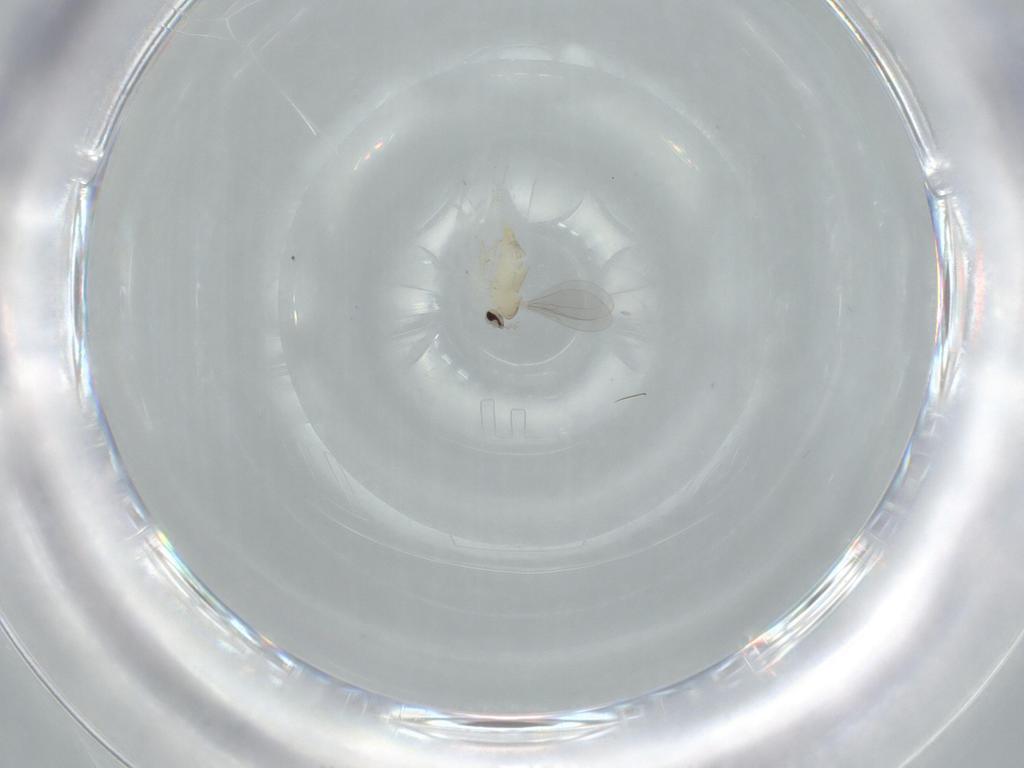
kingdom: Animalia
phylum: Arthropoda
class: Insecta
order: Diptera
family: Cecidomyiidae
